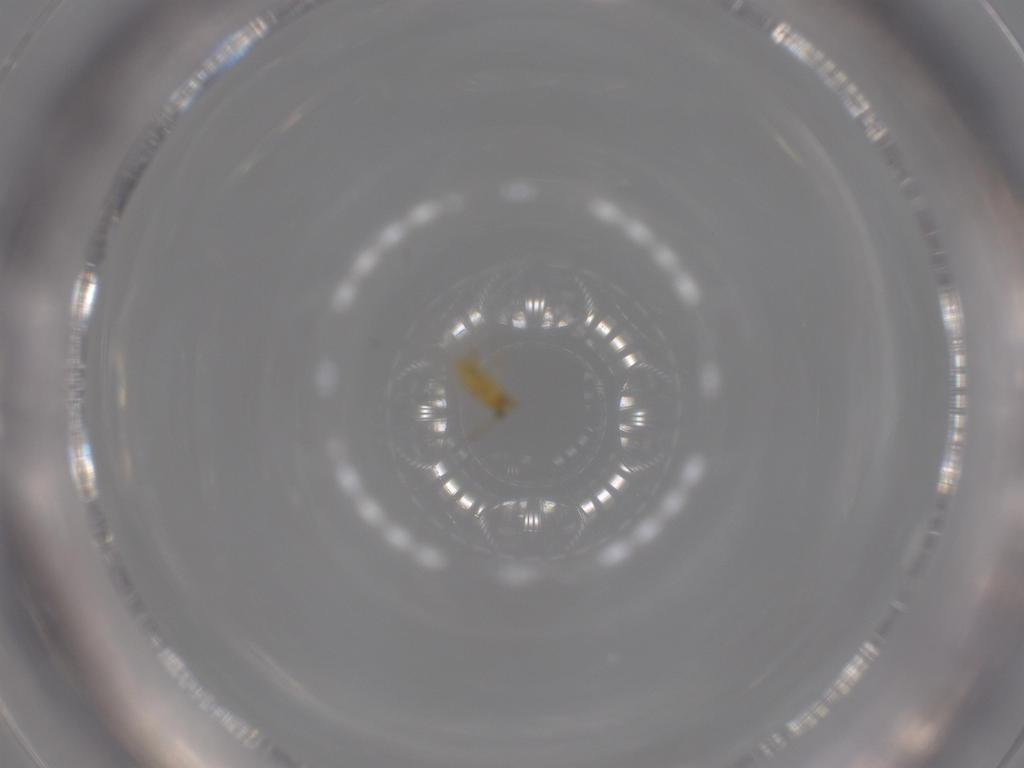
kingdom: Animalia
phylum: Arthropoda
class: Insecta
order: Hymenoptera
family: Aphelinidae
